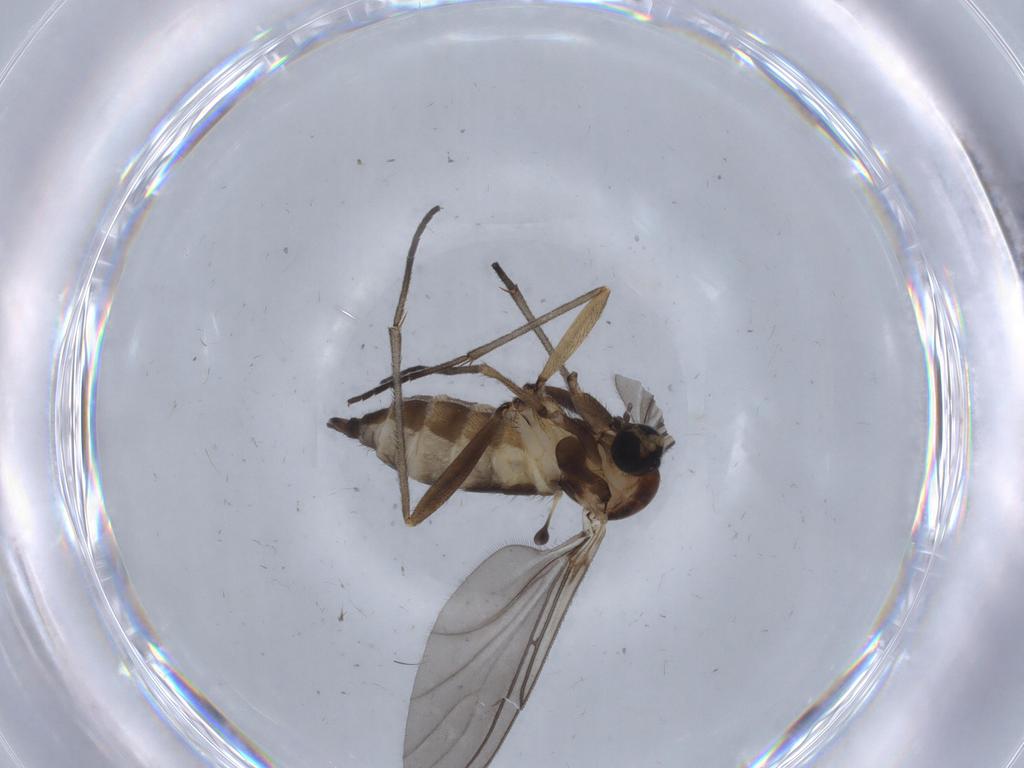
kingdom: Animalia
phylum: Arthropoda
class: Insecta
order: Diptera
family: Sciaridae
